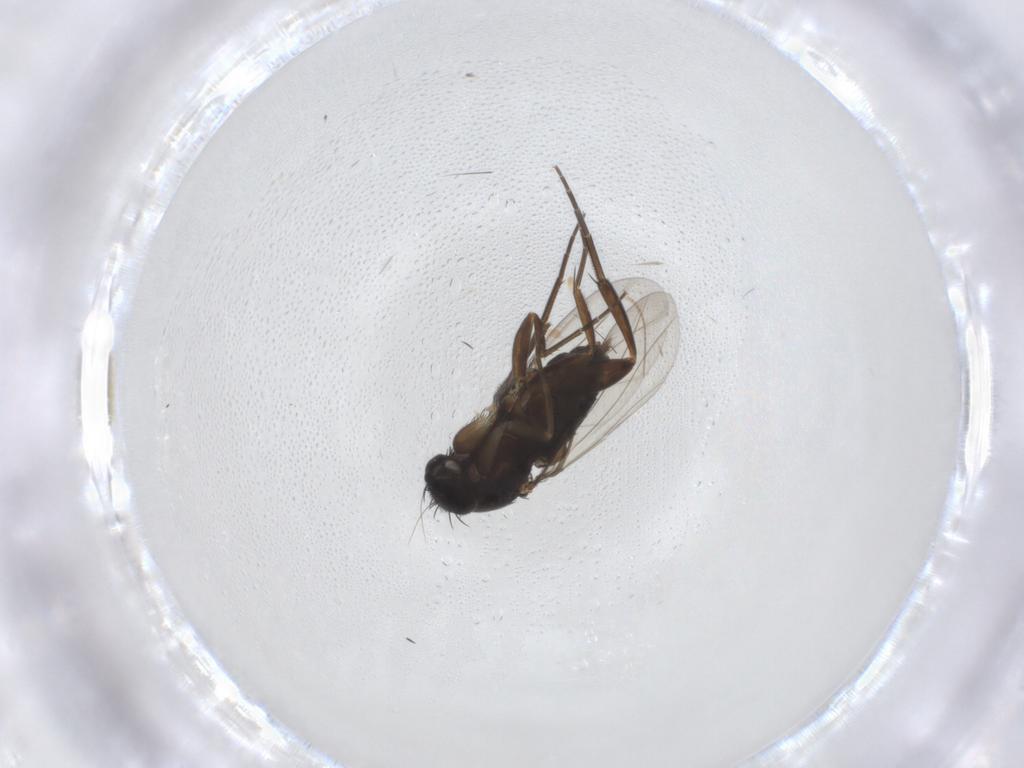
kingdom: Animalia
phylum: Arthropoda
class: Insecta
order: Diptera
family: Phoridae
